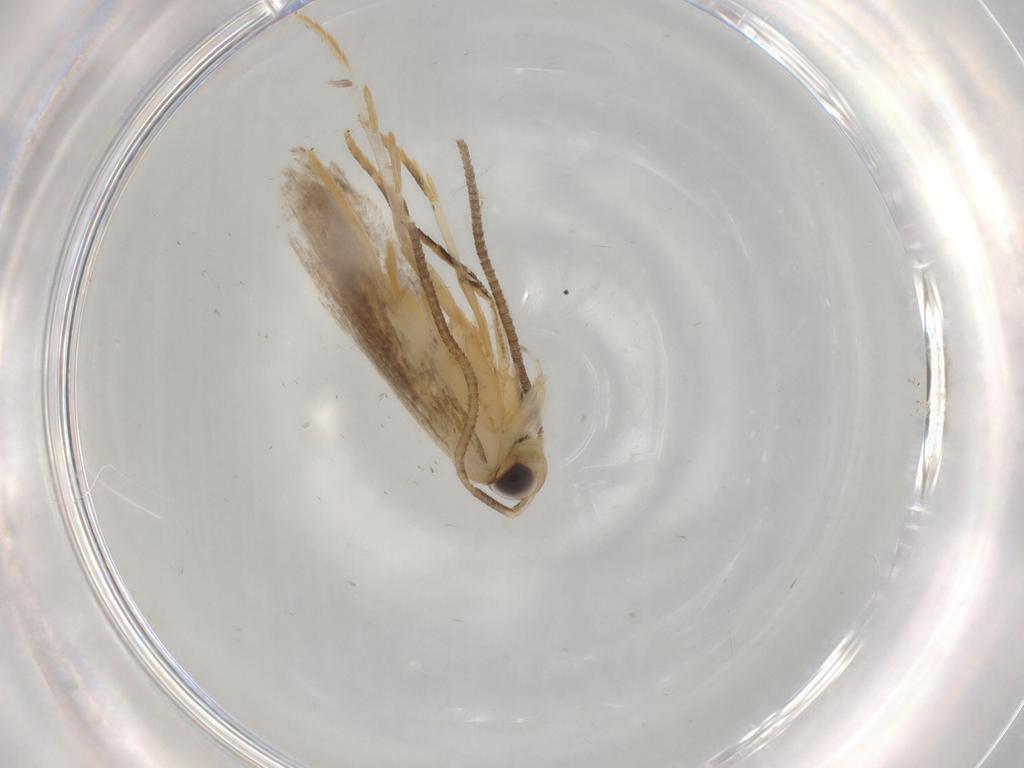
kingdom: Animalia
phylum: Arthropoda
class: Insecta
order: Lepidoptera
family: Autostichidae
